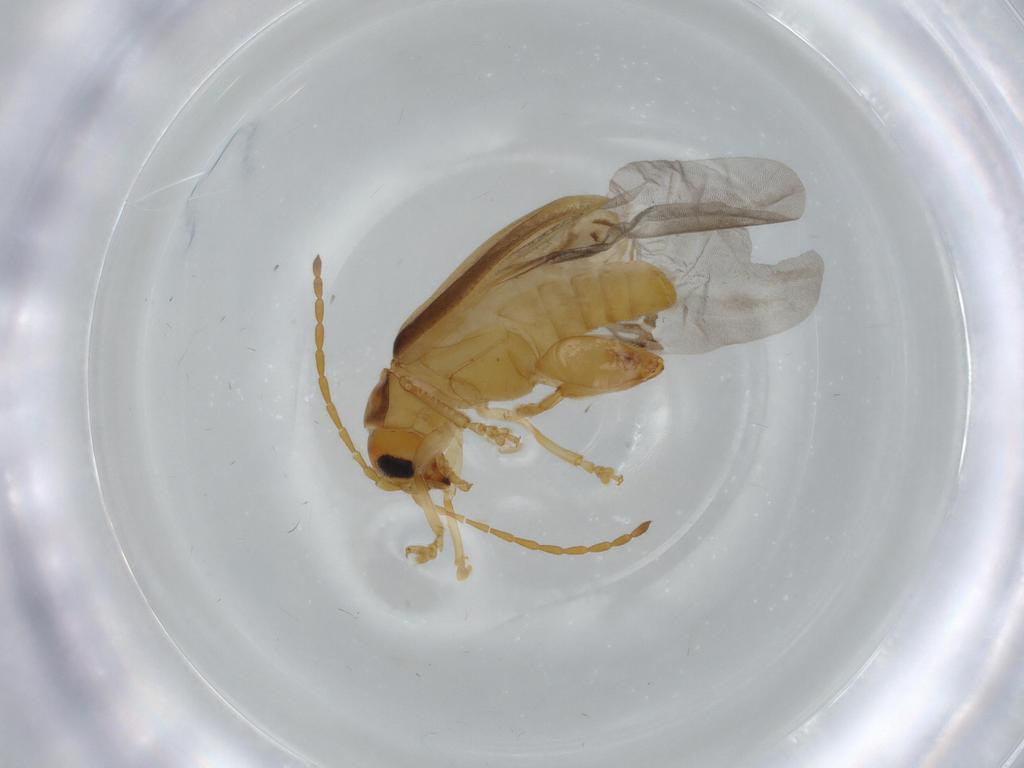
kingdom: Animalia
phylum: Arthropoda
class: Insecta
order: Coleoptera
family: Chrysomelidae
